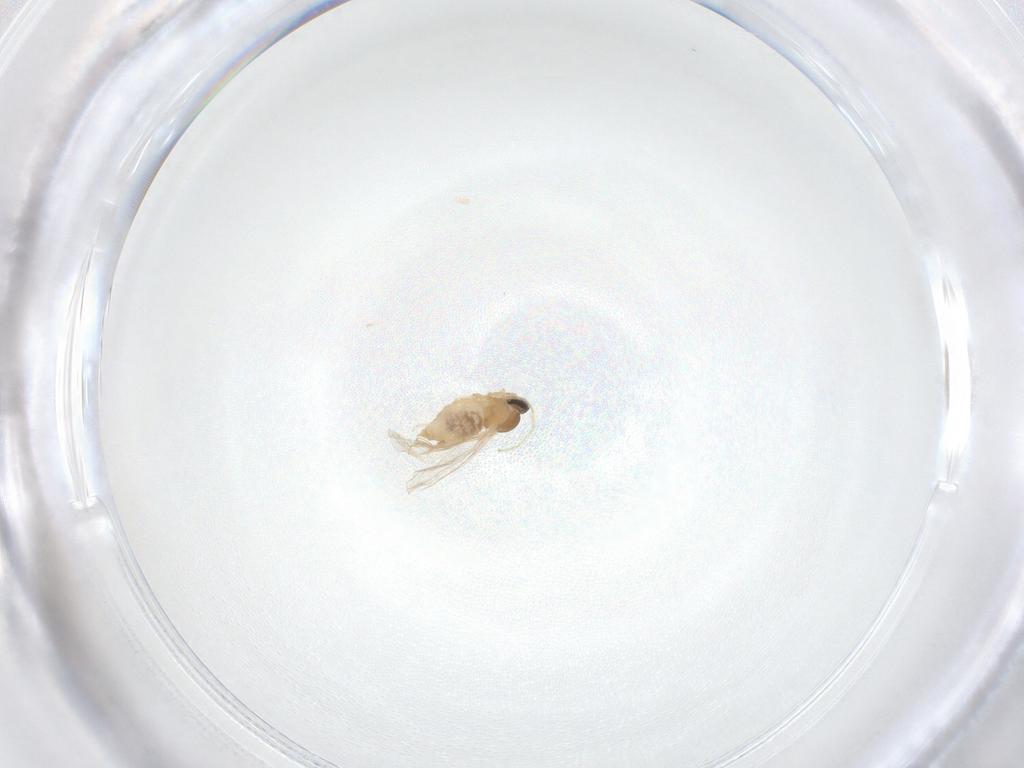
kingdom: Animalia
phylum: Arthropoda
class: Insecta
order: Diptera
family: Cecidomyiidae
